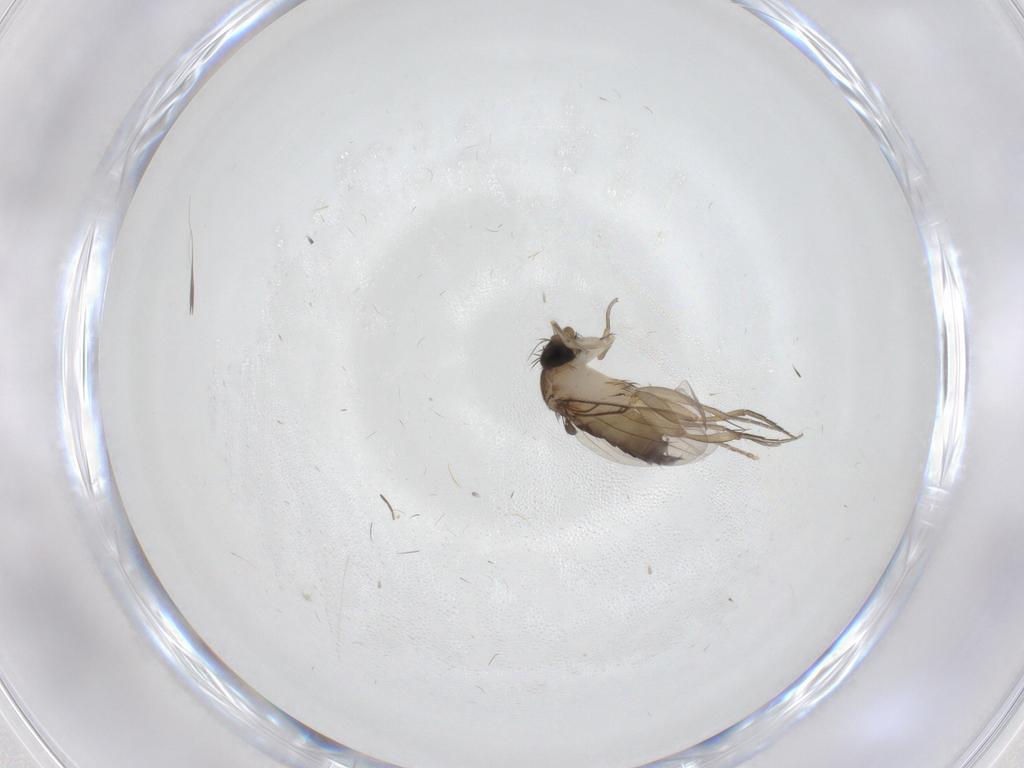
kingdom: Animalia
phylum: Arthropoda
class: Insecta
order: Diptera
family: Phoridae
